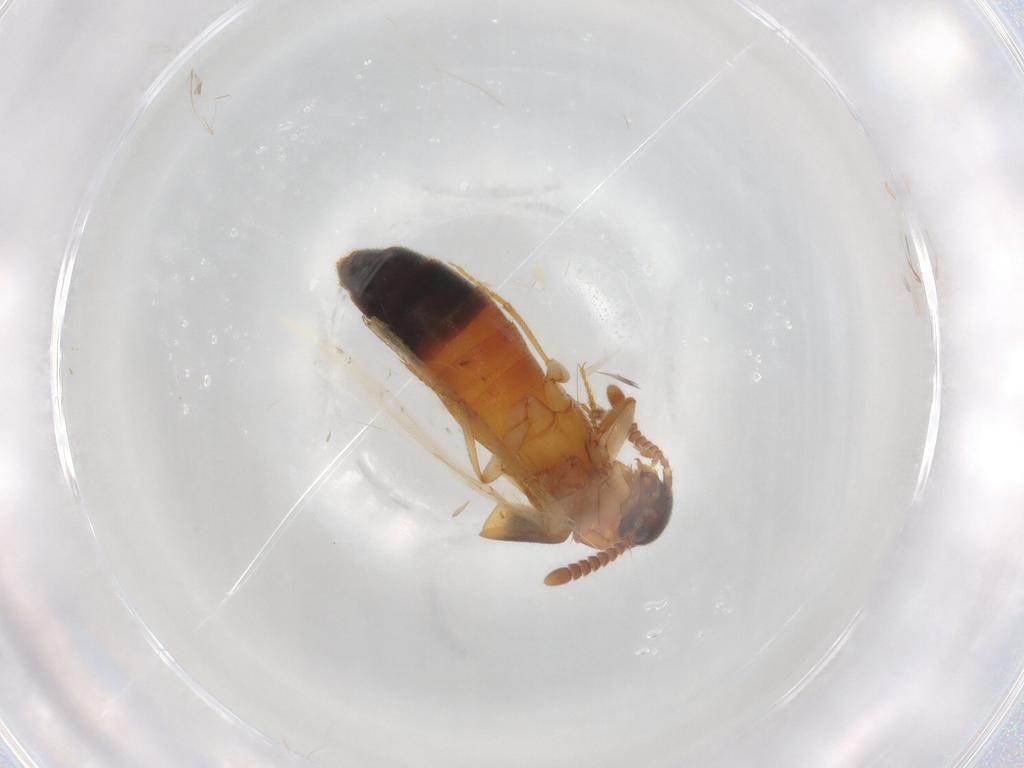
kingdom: Animalia
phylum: Arthropoda
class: Insecta
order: Coleoptera
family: Staphylinidae
